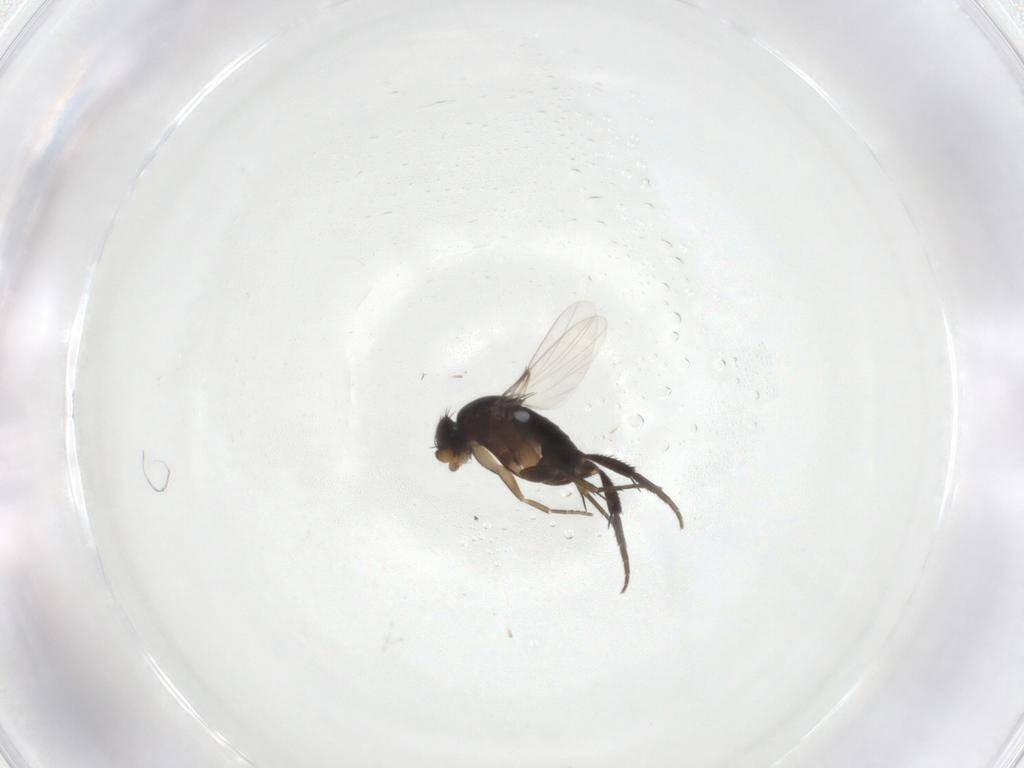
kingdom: Animalia
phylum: Arthropoda
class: Insecta
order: Diptera
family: Phoridae
